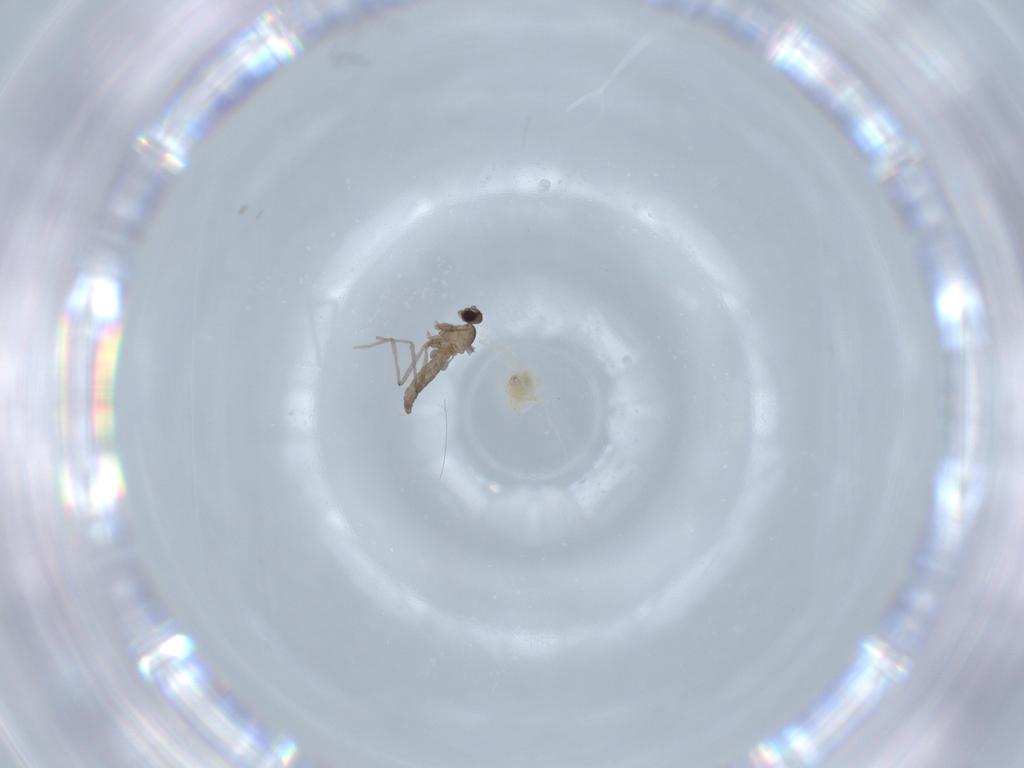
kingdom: Animalia
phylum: Arthropoda
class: Insecta
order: Diptera
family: Cecidomyiidae
